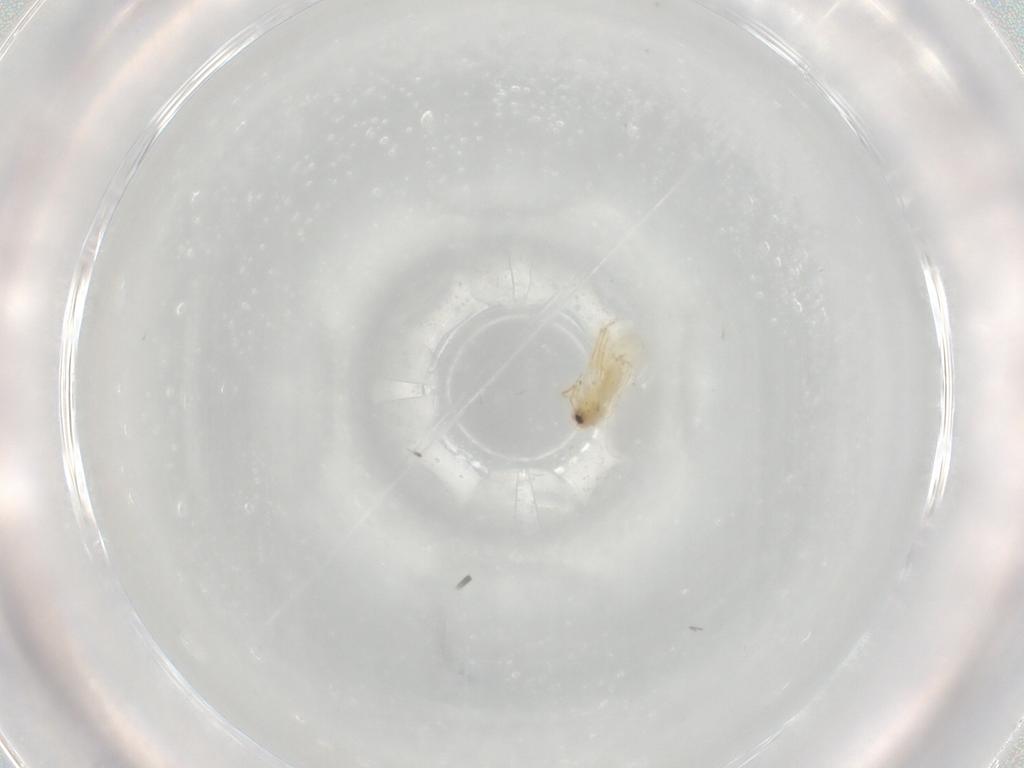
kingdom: Animalia
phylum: Arthropoda
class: Insecta
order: Hemiptera
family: Aleyrodidae
